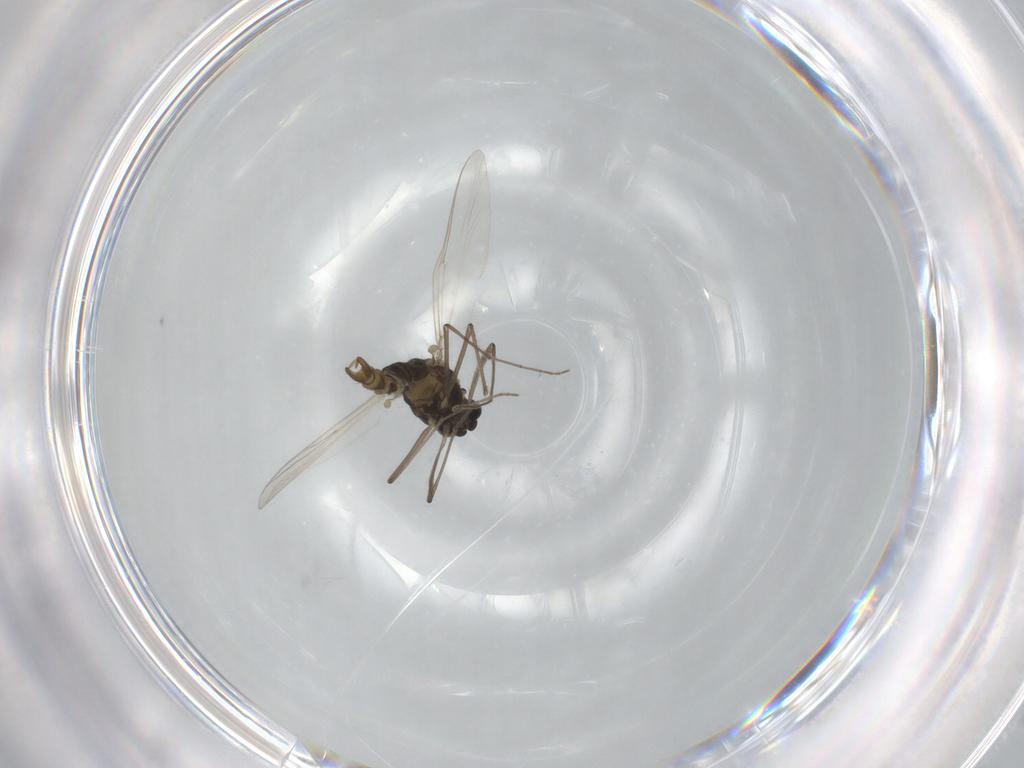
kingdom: Animalia
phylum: Arthropoda
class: Insecta
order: Diptera
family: Chironomidae
